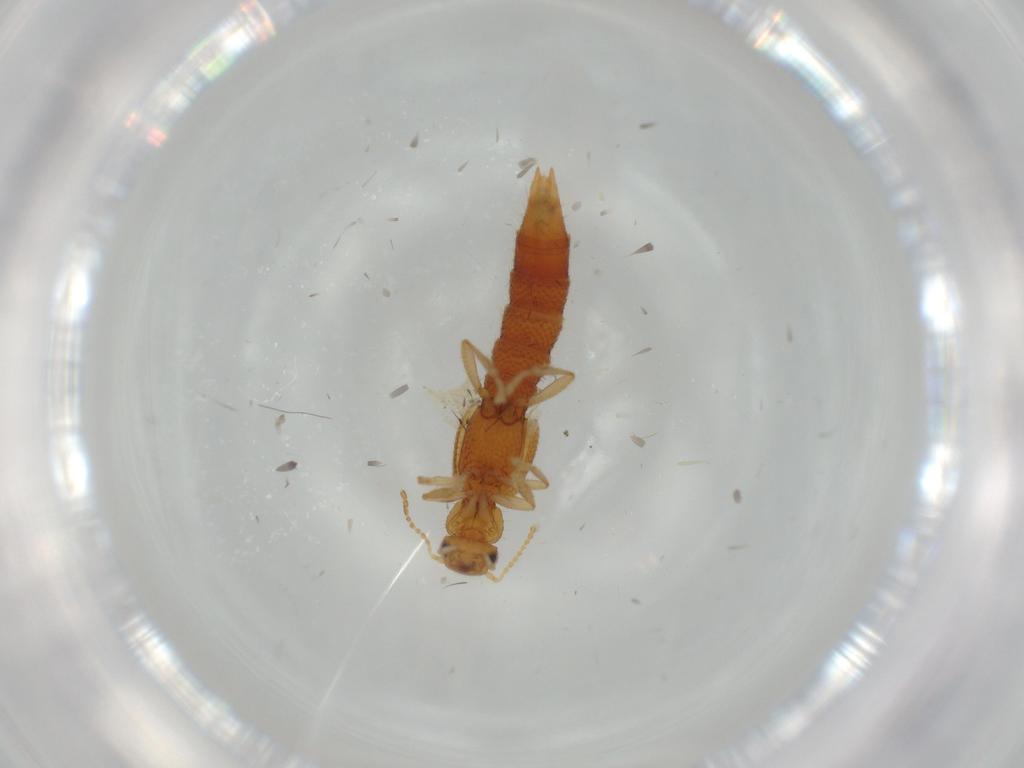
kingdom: Animalia
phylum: Arthropoda
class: Insecta
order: Coleoptera
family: Staphylinidae
